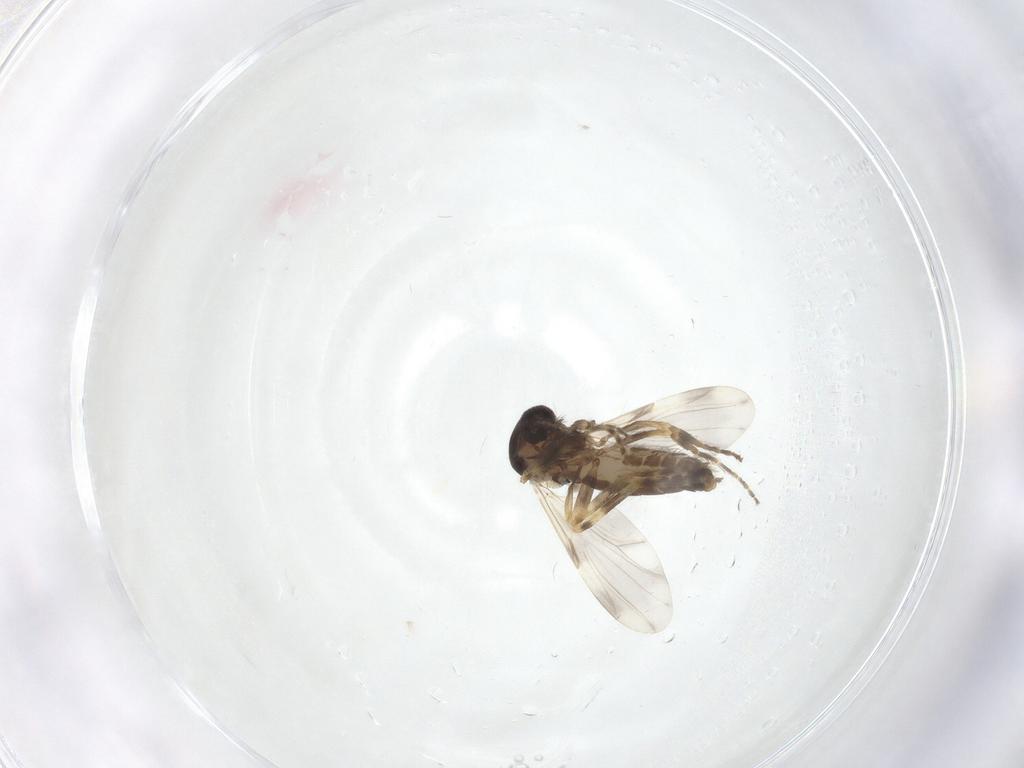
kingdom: Animalia
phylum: Arthropoda
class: Insecta
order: Diptera
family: Ceratopogonidae
